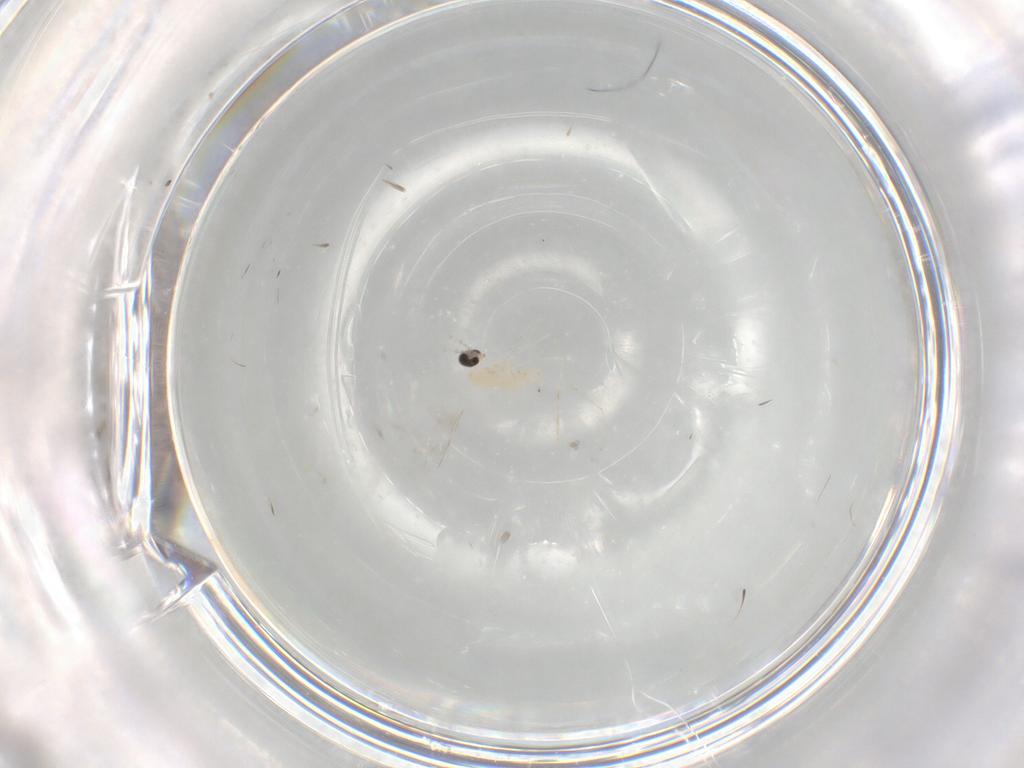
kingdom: Animalia
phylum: Arthropoda
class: Insecta
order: Diptera
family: Cecidomyiidae
